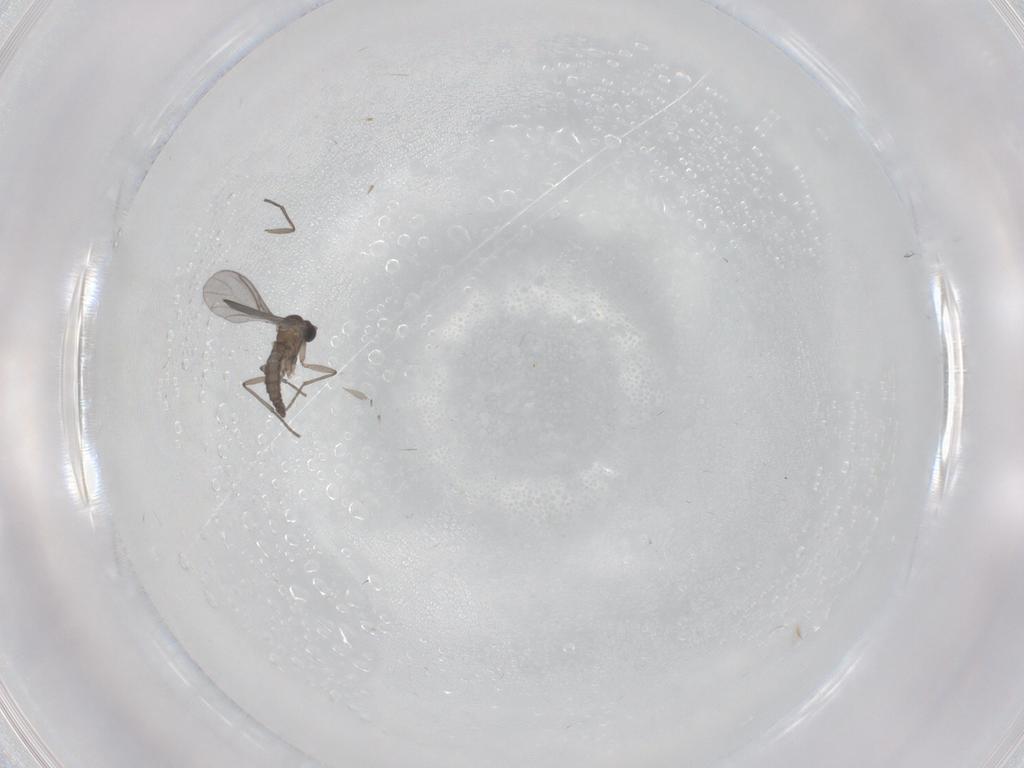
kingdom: Animalia
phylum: Arthropoda
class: Insecta
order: Diptera
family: Sciaridae
